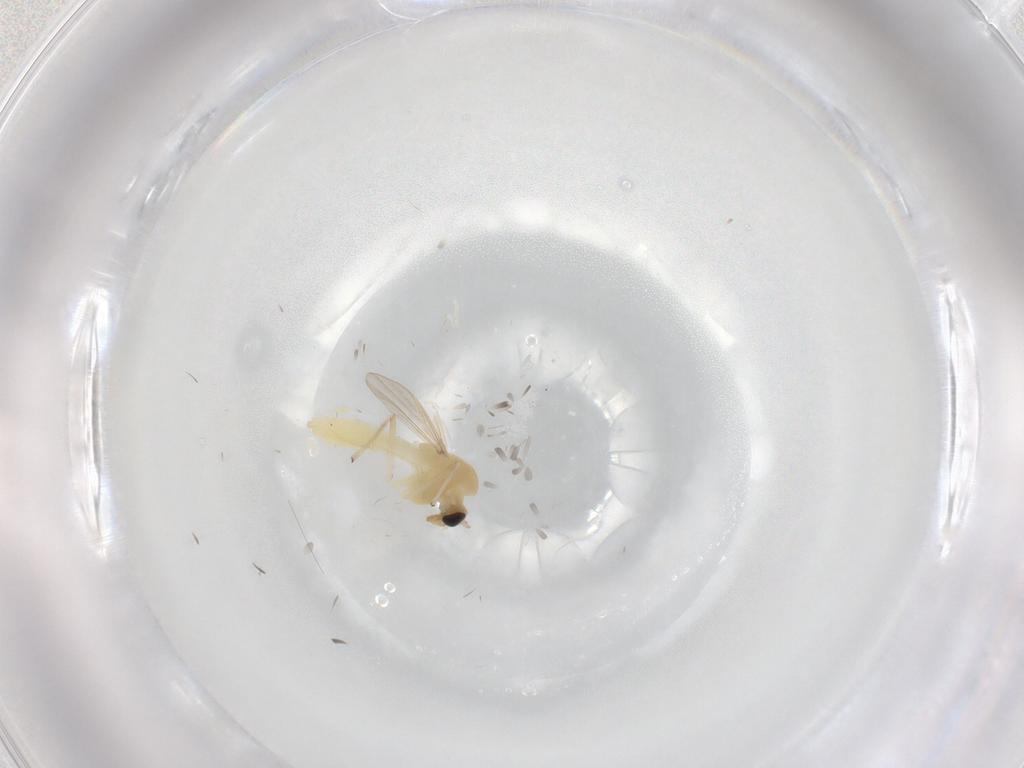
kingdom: Animalia
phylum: Arthropoda
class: Insecta
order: Diptera
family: Chironomidae
